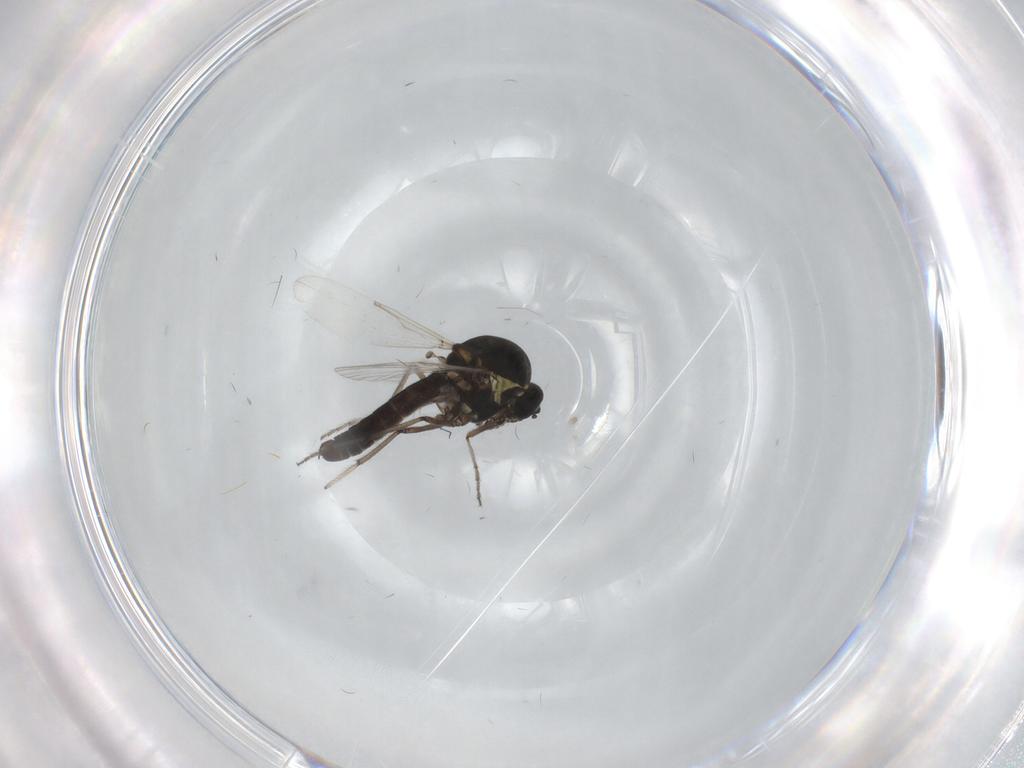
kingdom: Animalia
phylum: Arthropoda
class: Insecta
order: Diptera
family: Ceratopogonidae
